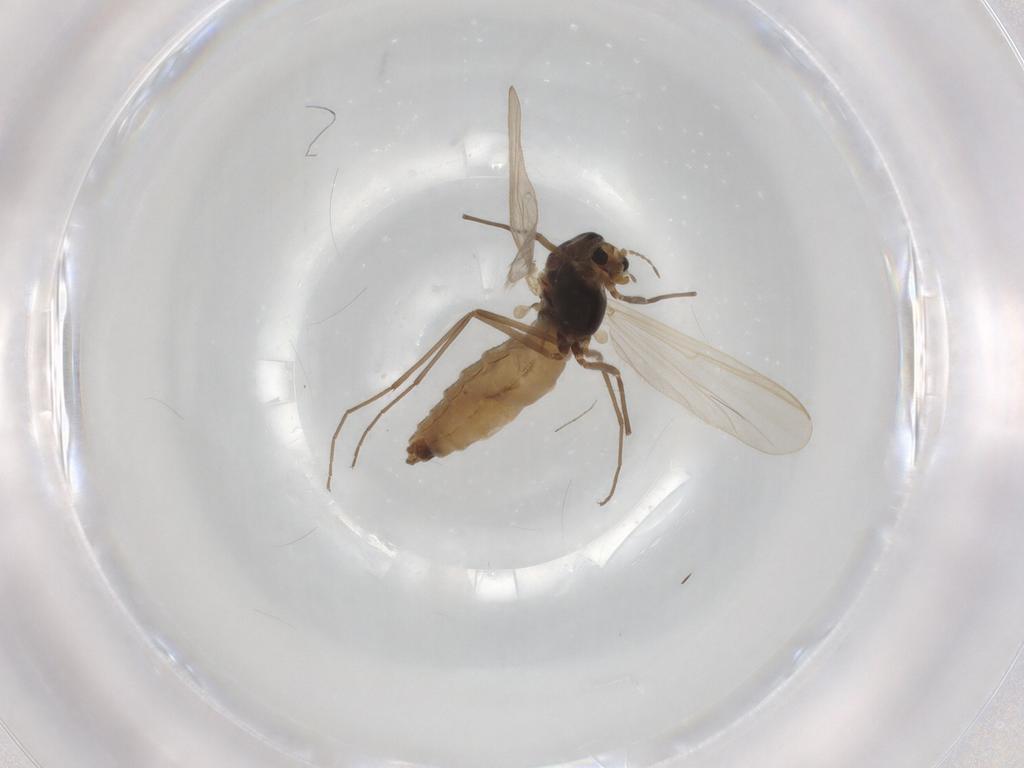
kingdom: Animalia
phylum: Arthropoda
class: Insecta
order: Diptera
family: Chironomidae
